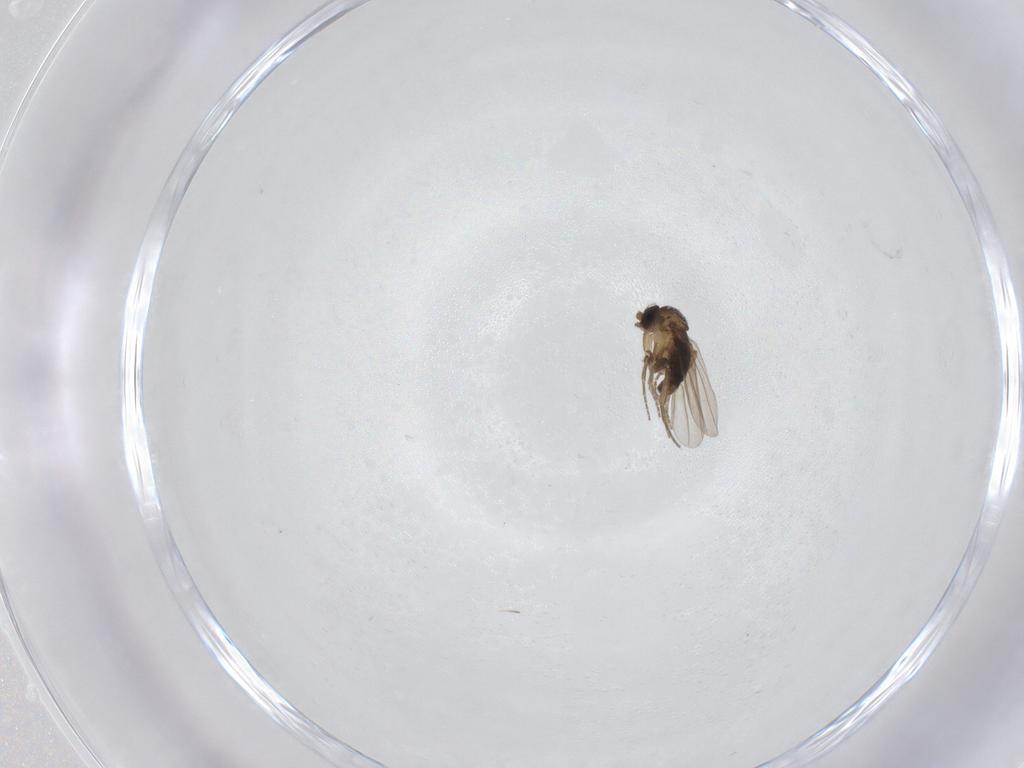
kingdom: Animalia
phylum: Arthropoda
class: Insecta
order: Diptera
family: Phoridae
